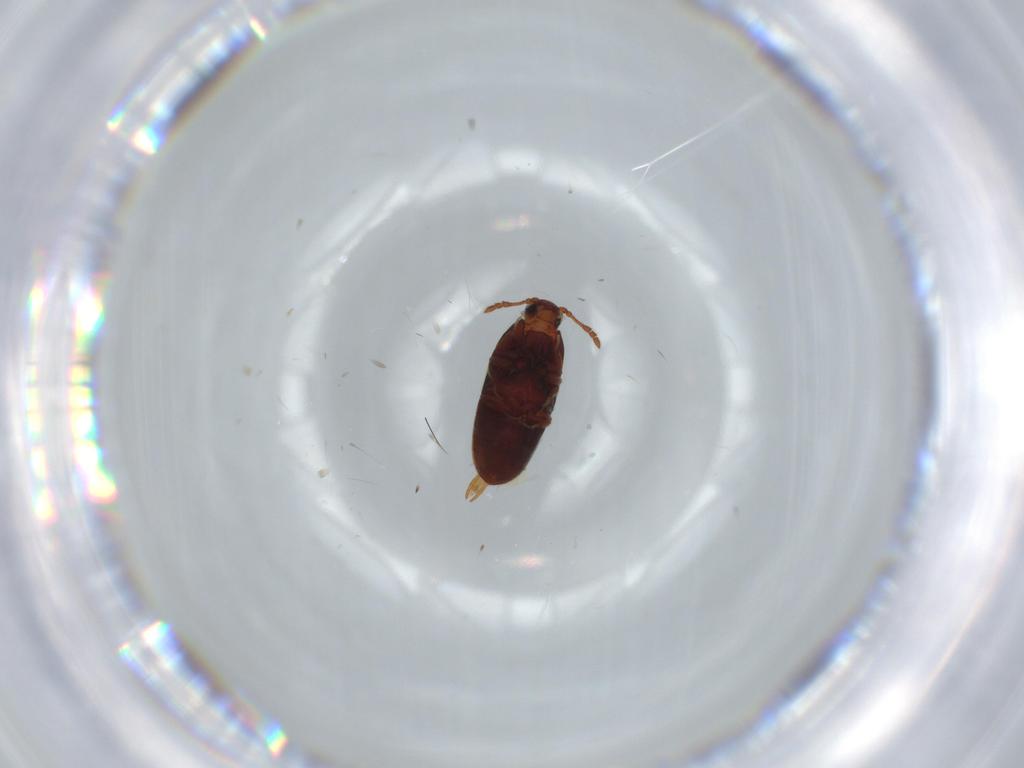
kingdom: Animalia
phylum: Arthropoda
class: Insecta
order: Coleoptera
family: Throscidae
